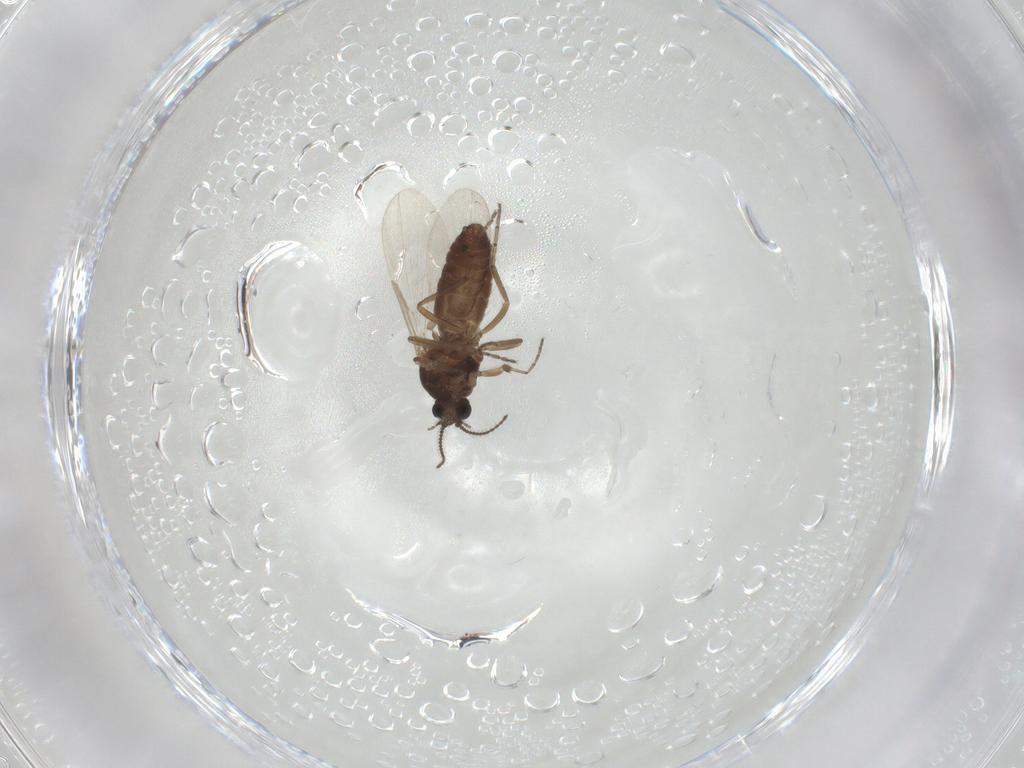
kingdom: Animalia
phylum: Arthropoda
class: Insecta
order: Diptera
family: Ceratopogonidae
